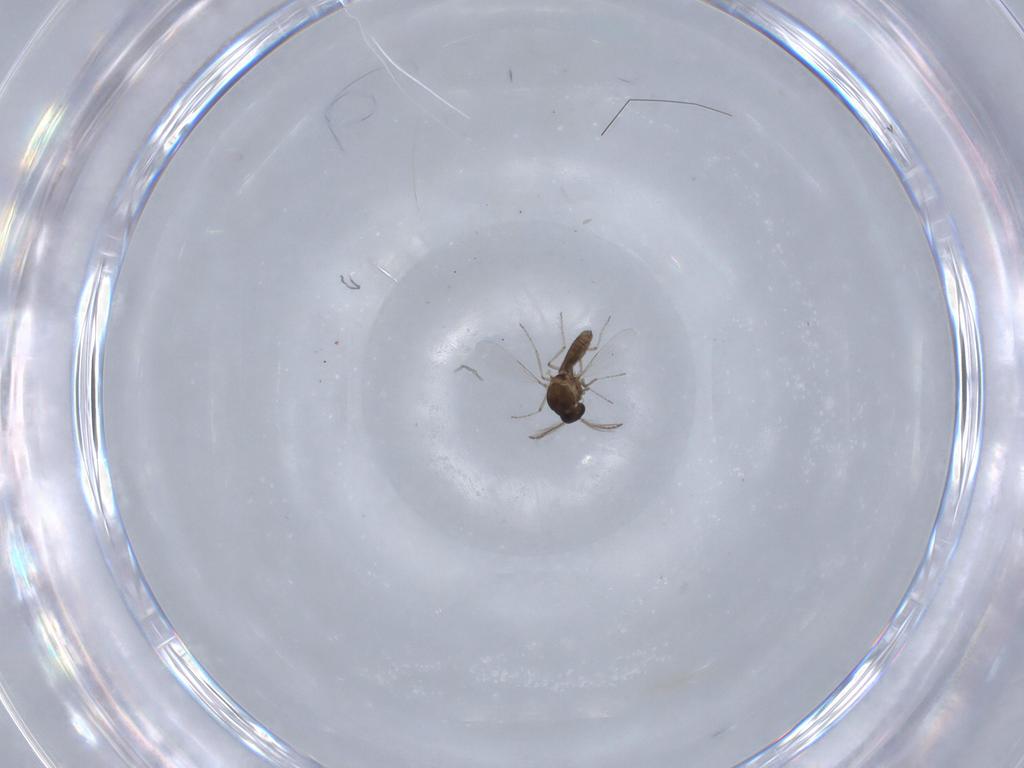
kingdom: Animalia
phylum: Arthropoda
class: Insecta
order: Diptera
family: Ceratopogonidae
